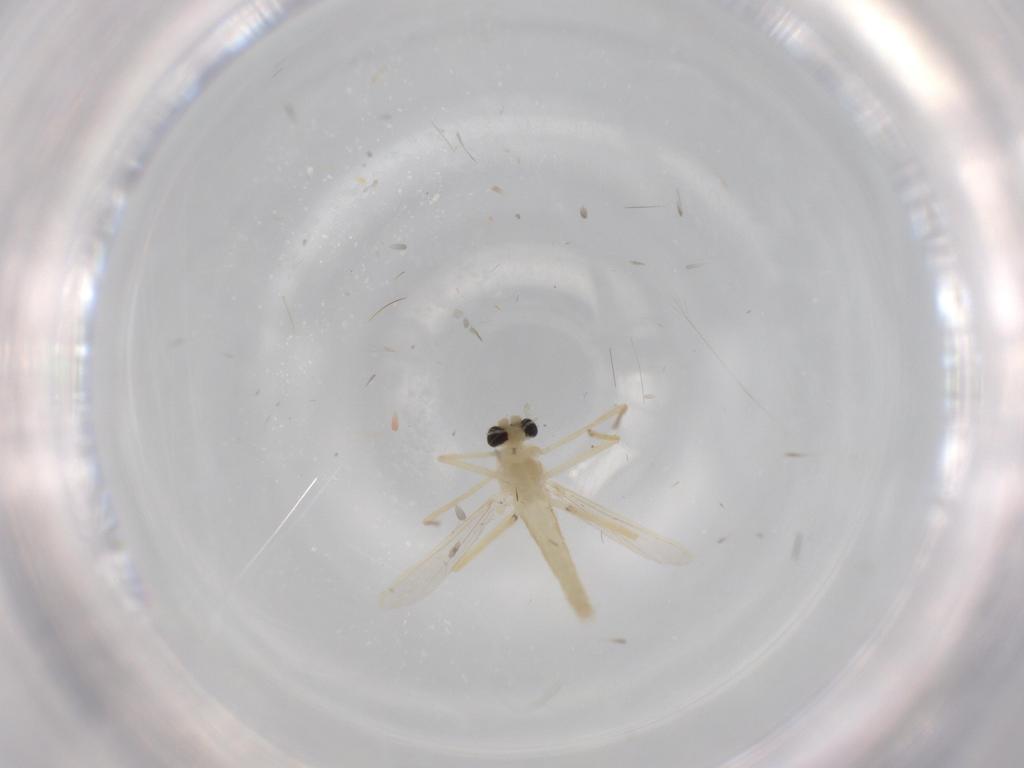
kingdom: Animalia
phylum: Arthropoda
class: Insecta
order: Diptera
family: Chironomidae
